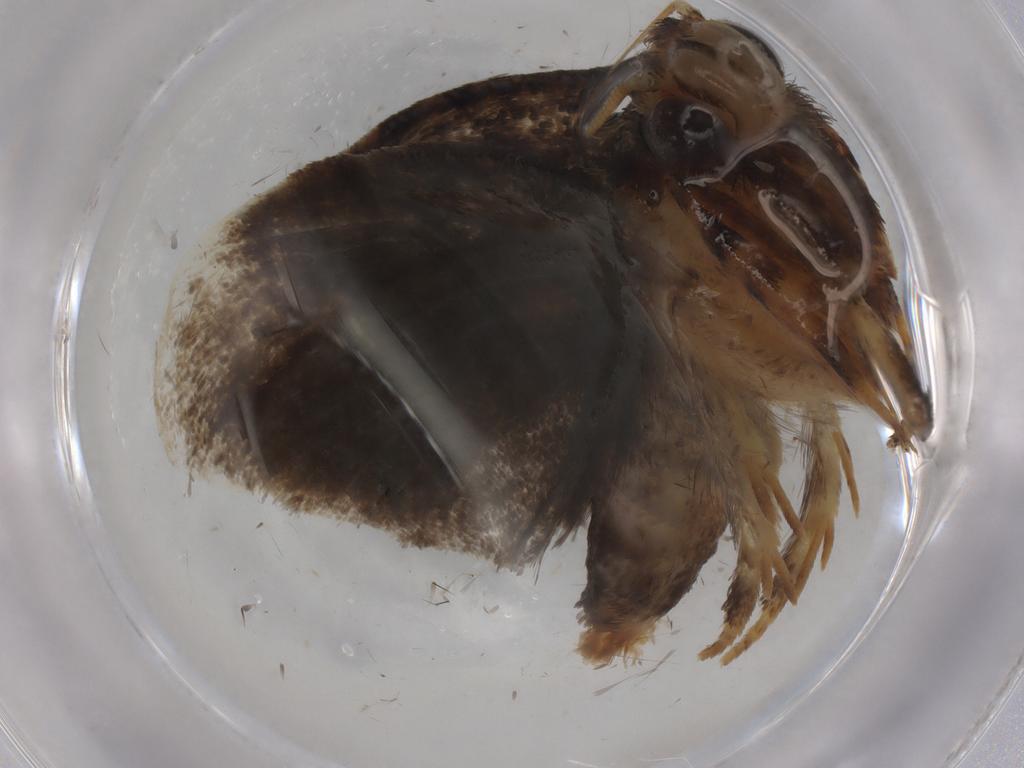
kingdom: Animalia
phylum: Arthropoda
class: Insecta
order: Lepidoptera
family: Tineidae
